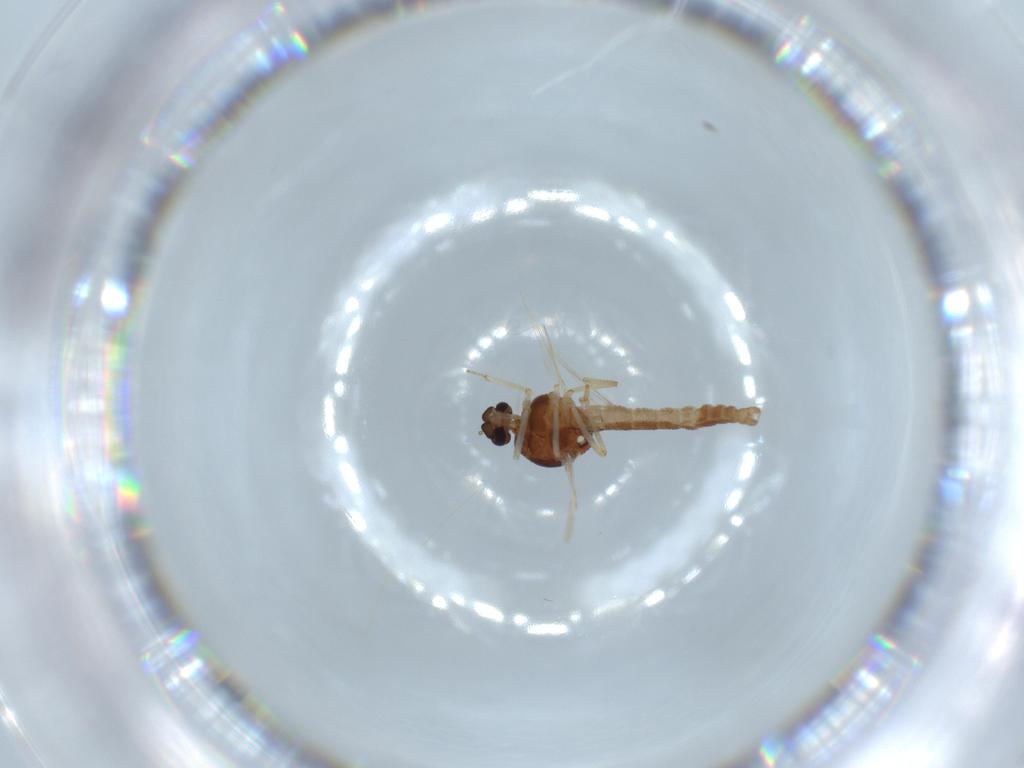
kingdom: Animalia
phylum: Arthropoda
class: Insecta
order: Diptera
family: Ceratopogonidae
